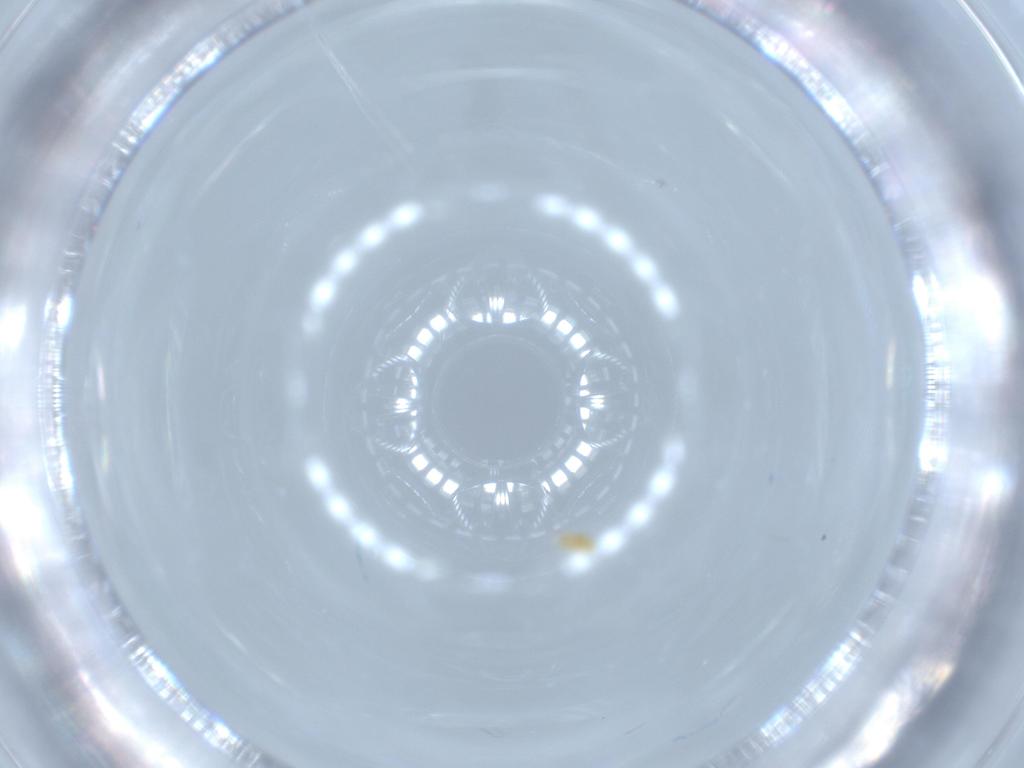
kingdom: Animalia
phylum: Arthropoda
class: Insecta
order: Diptera
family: Hybotidae
